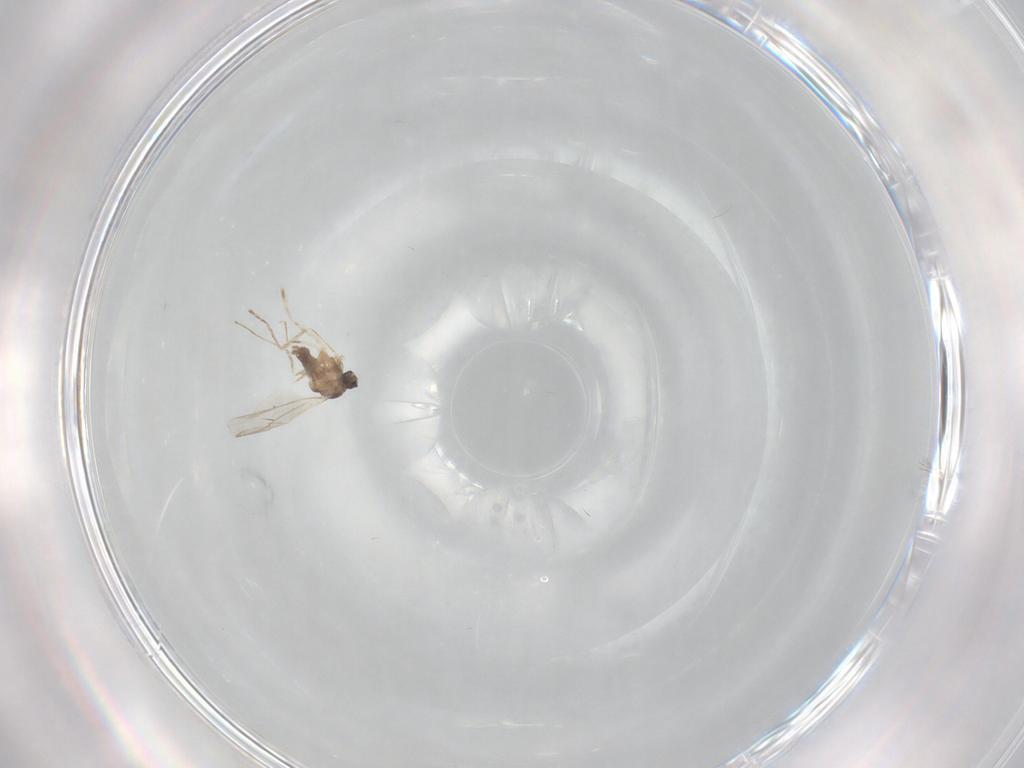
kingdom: Animalia
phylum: Arthropoda
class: Insecta
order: Diptera
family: Cecidomyiidae
